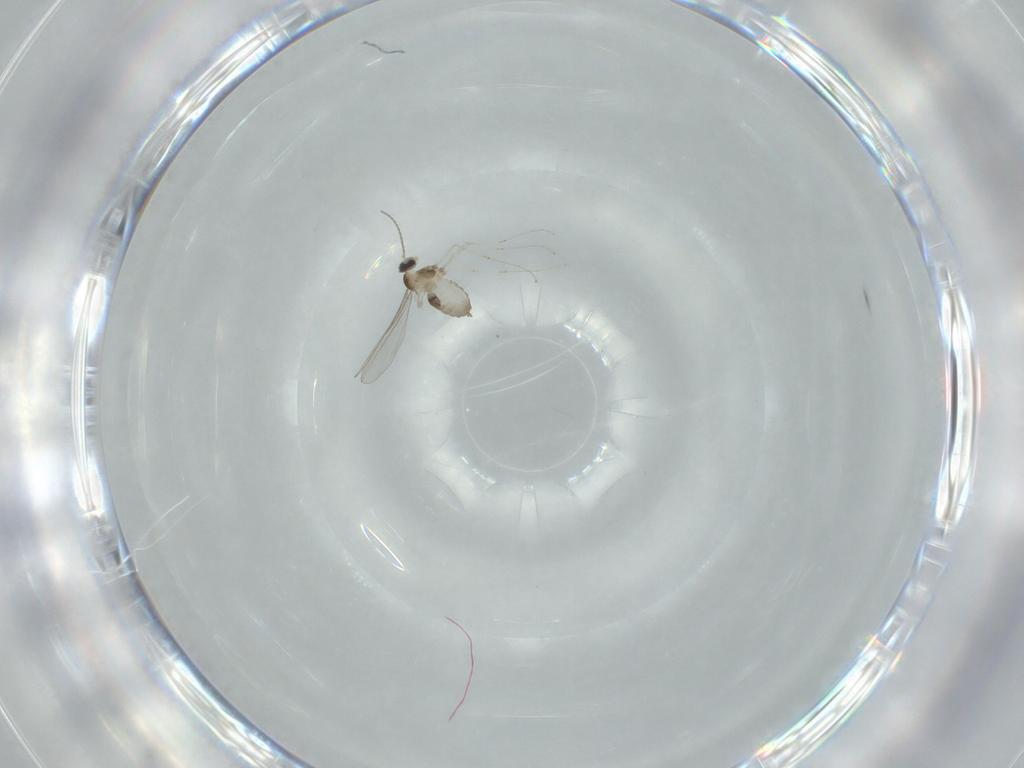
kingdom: Animalia
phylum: Arthropoda
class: Insecta
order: Diptera
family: Cecidomyiidae
